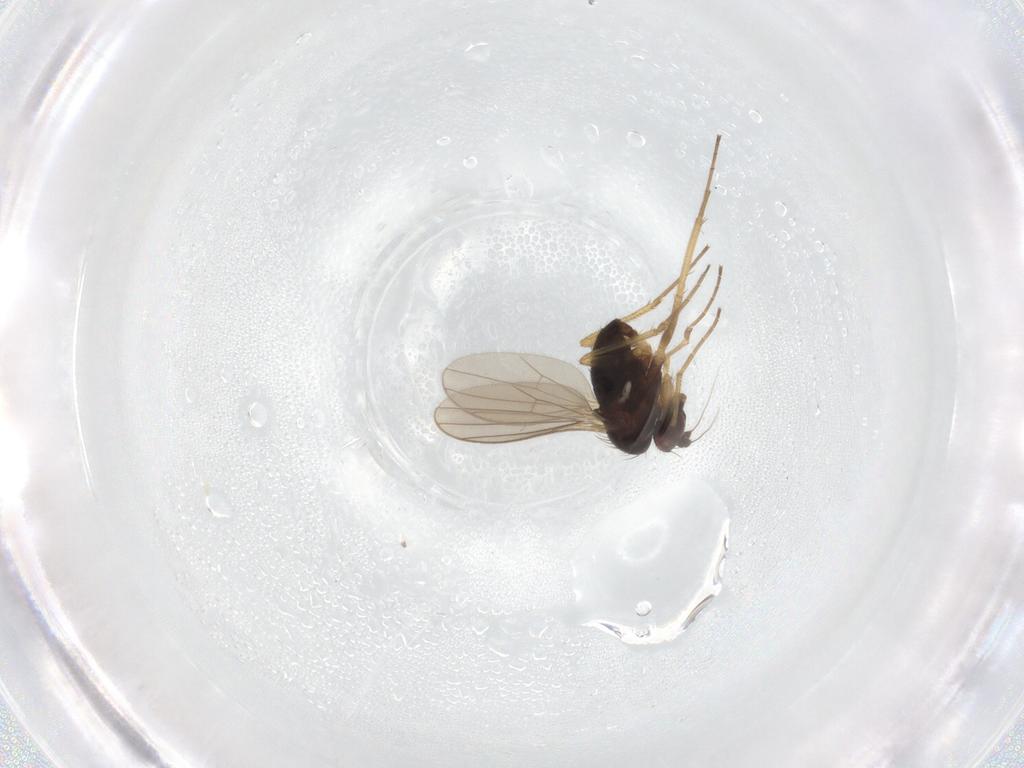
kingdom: Animalia
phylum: Arthropoda
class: Insecta
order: Diptera
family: Dolichopodidae
